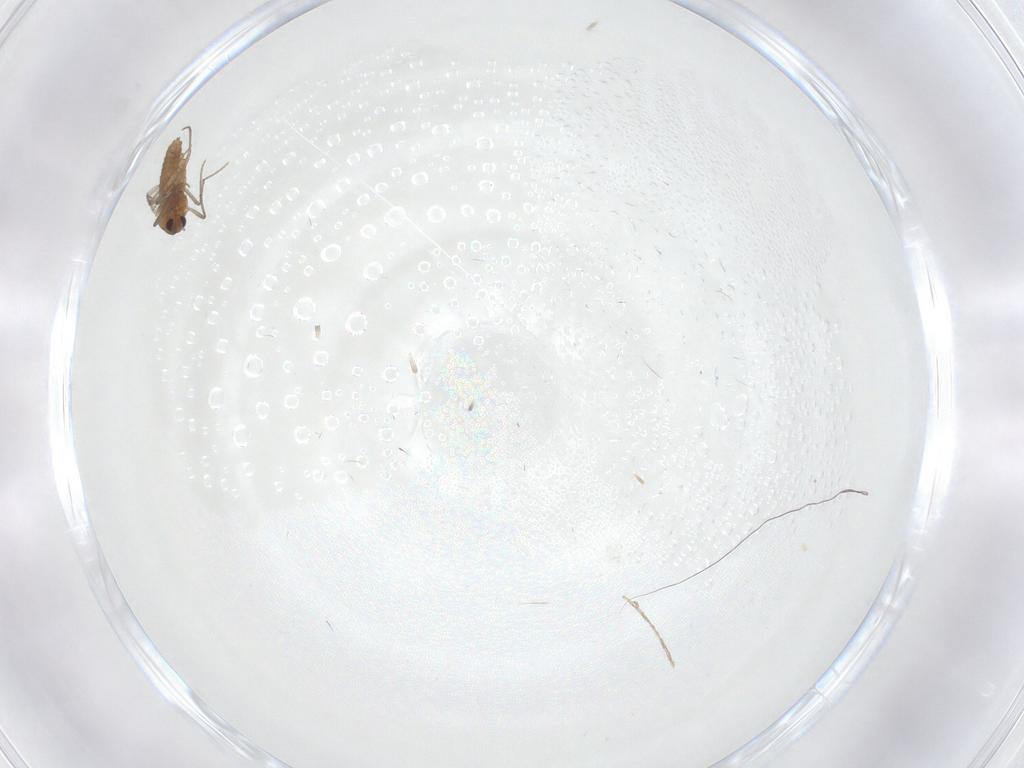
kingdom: Animalia
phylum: Arthropoda
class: Insecta
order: Diptera
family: Chironomidae
